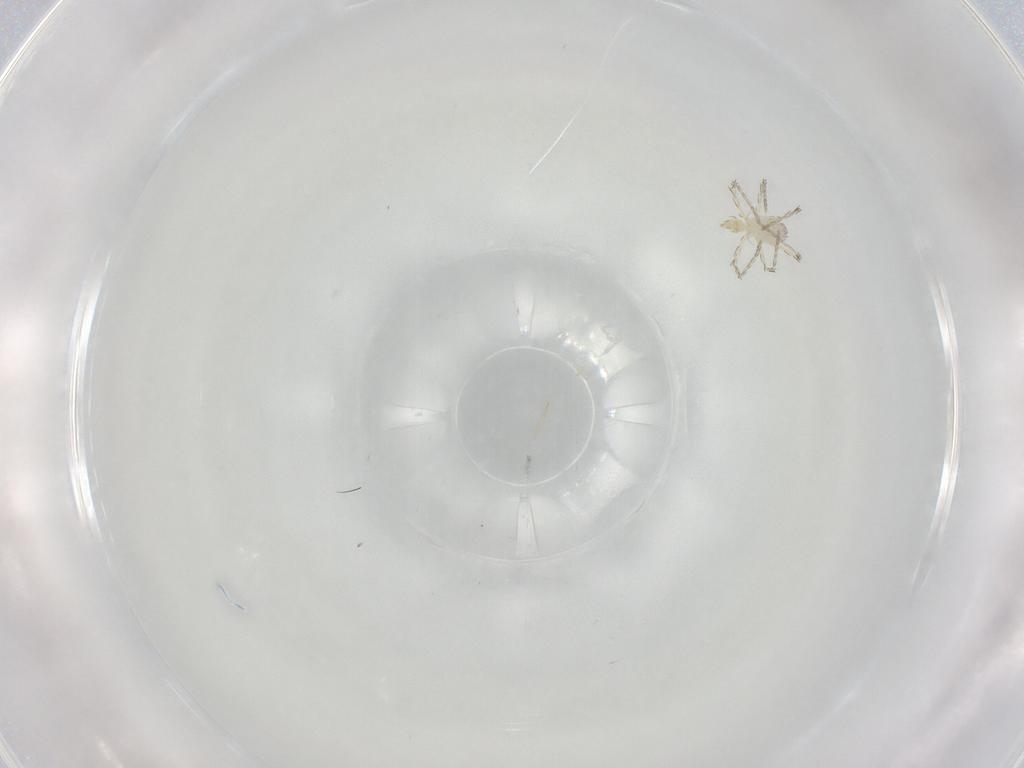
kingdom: Animalia
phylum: Arthropoda
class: Arachnida
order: Trombidiformes
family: Erythraeidae
